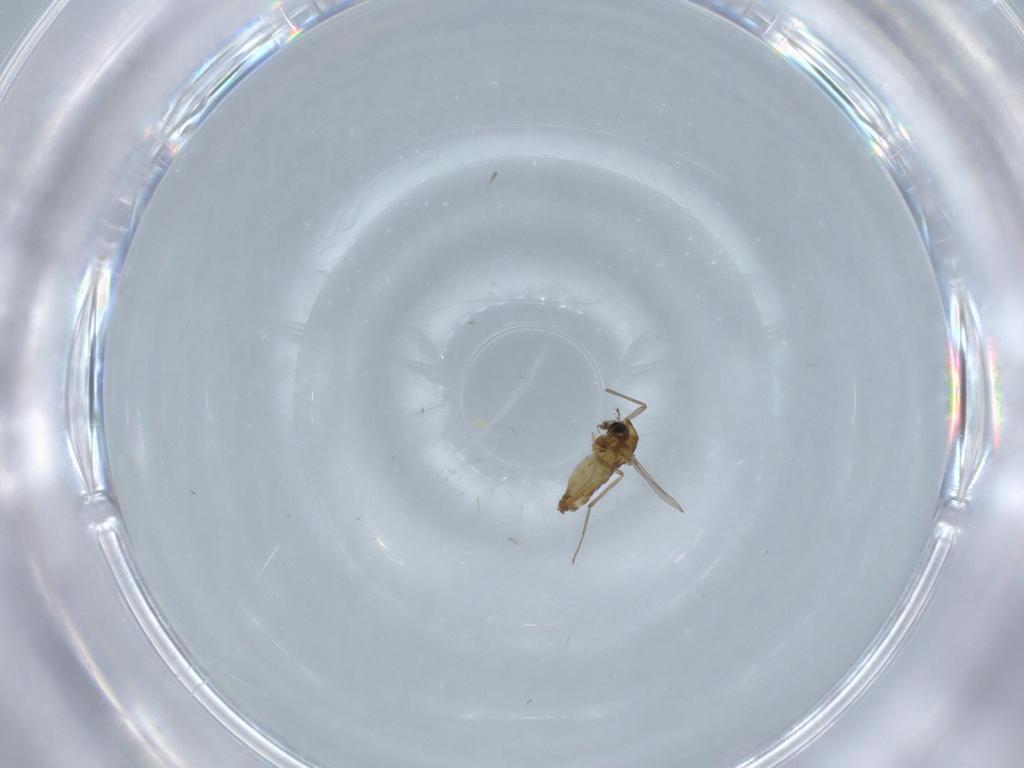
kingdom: Animalia
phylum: Arthropoda
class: Insecta
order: Diptera
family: Chironomidae
